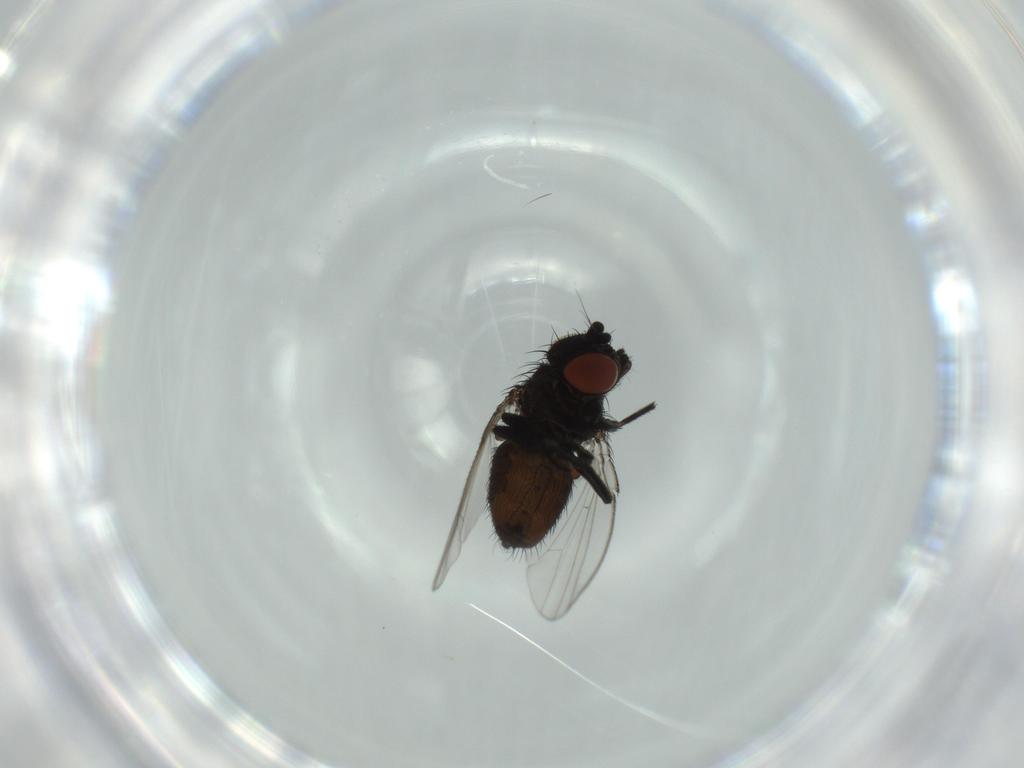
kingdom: Animalia
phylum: Arthropoda
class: Insecta
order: Diptera
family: Milichiidae
